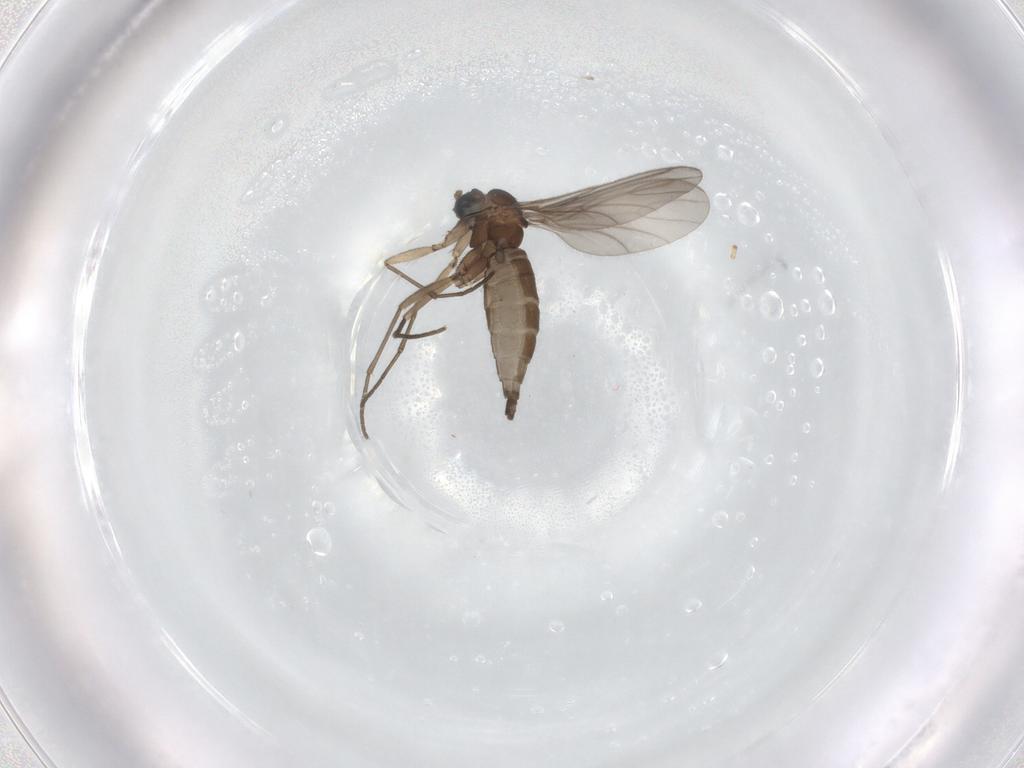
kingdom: Animalia
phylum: Arthropoda
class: Insecta
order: Diptera
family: Sciaridae
